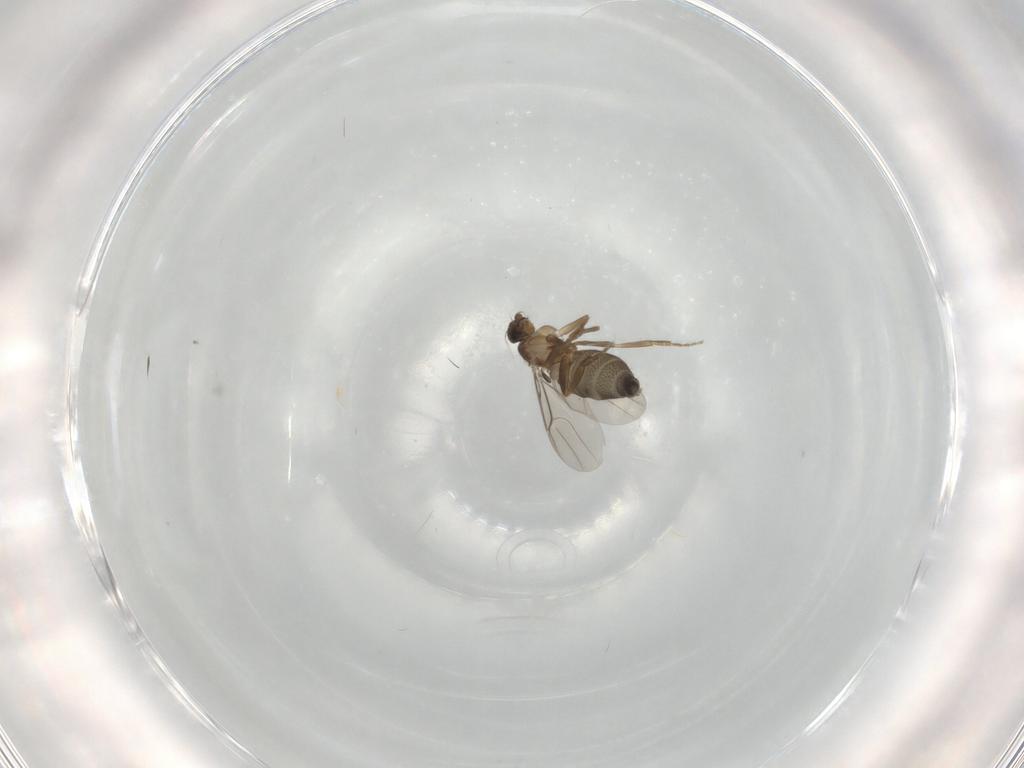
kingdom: Animalia
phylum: Arthropoda
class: Insecta
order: Diptera
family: Phoridae
